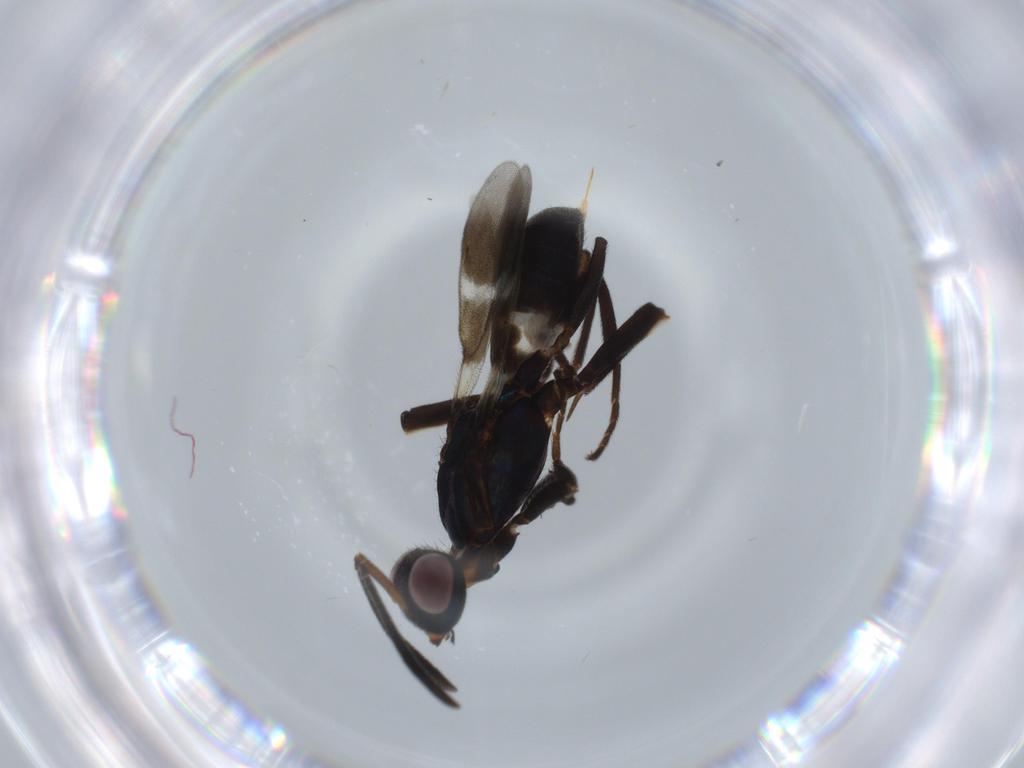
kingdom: Animalia
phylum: Arthropoda
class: Insecta
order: Hymenoptera
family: Eupelmidae
